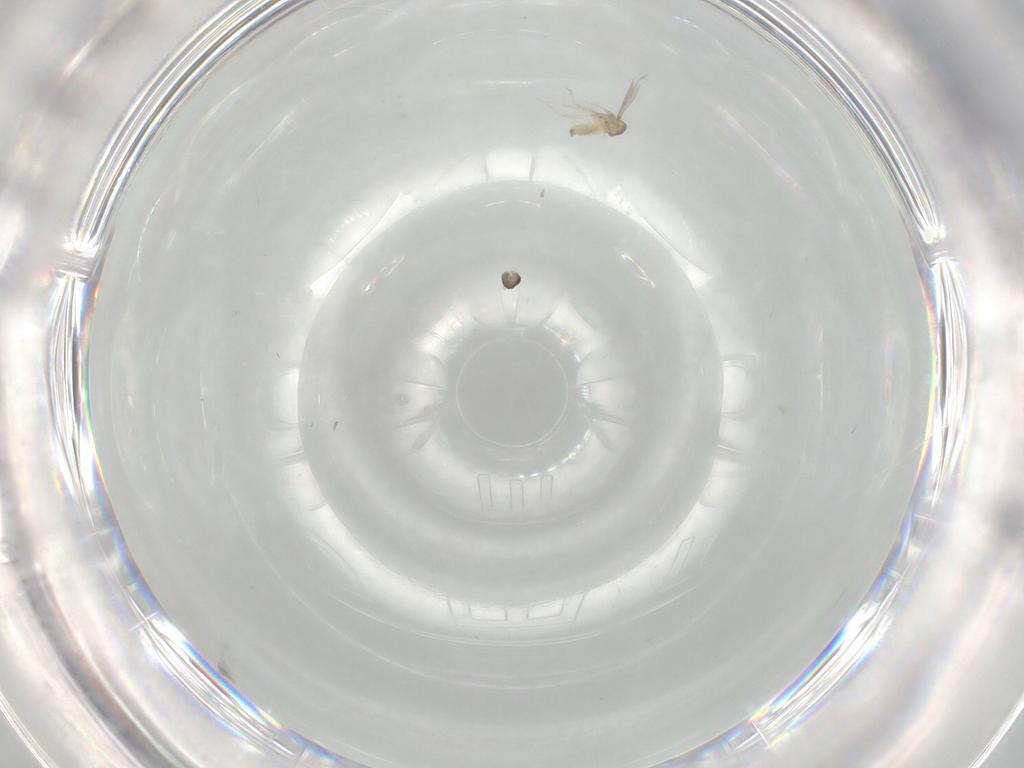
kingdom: Animalia
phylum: Arthropoda
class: Insecta
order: Diptera
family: Cecidomyiidae
